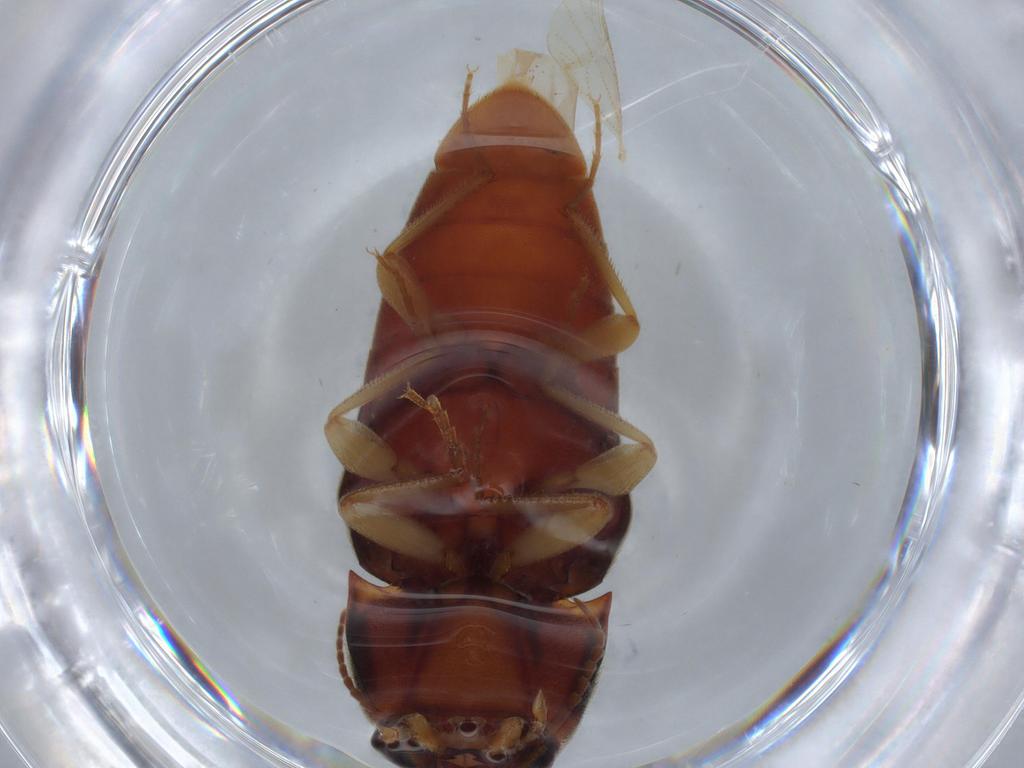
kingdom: Animalia
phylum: Arthropoda
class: Insecta
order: Coleoptera
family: Elateridae
